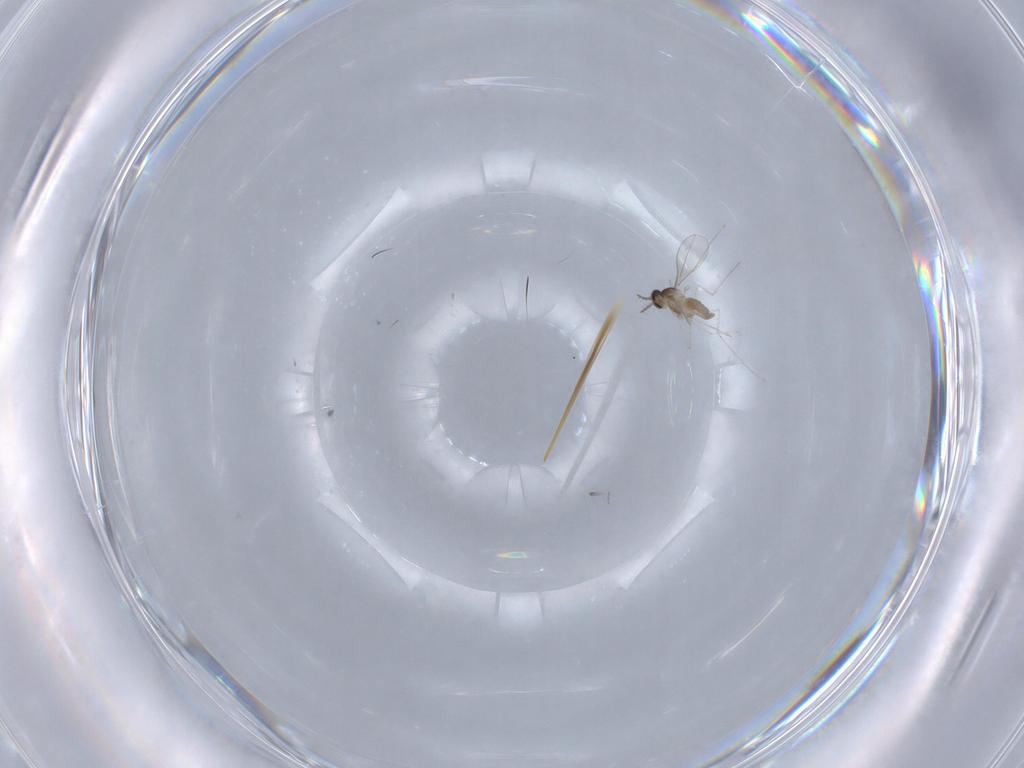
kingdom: Animalia
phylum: Arthropoda
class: Insecta
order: Diptera
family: Cecidomyiidae
